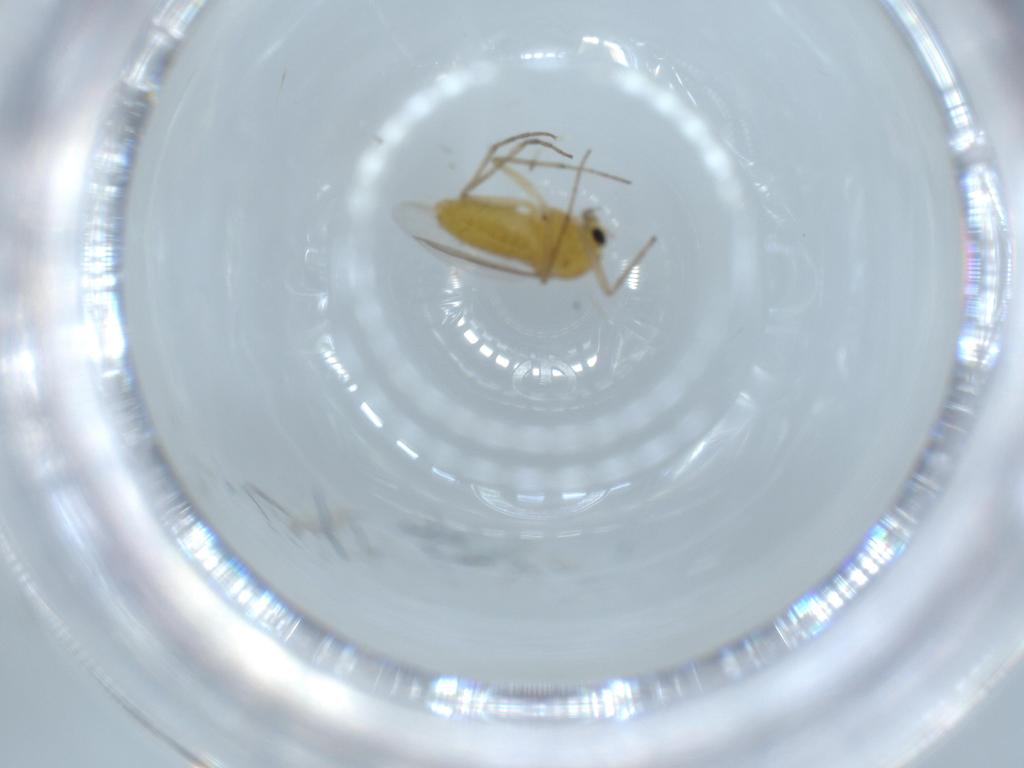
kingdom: Animalia
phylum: Arthropoda
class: Insecta
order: Diptera
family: Chironomidae
